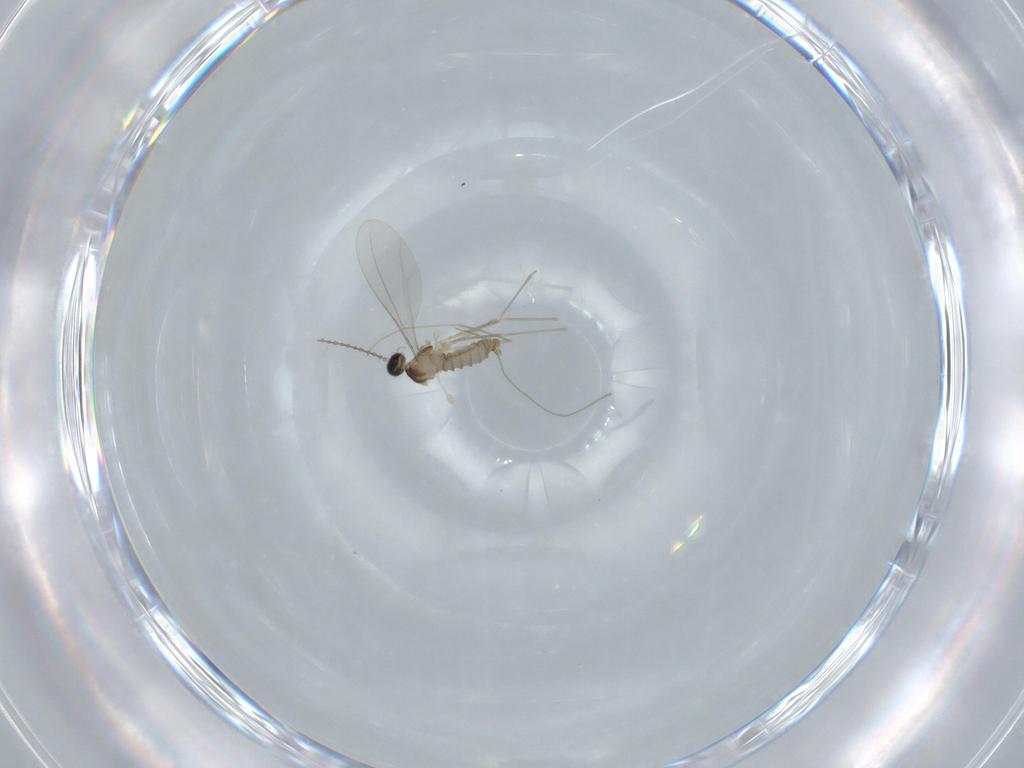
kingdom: Animalia
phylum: Arthropoda
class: Insecta
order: Diptera
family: Cecidomyiidae
